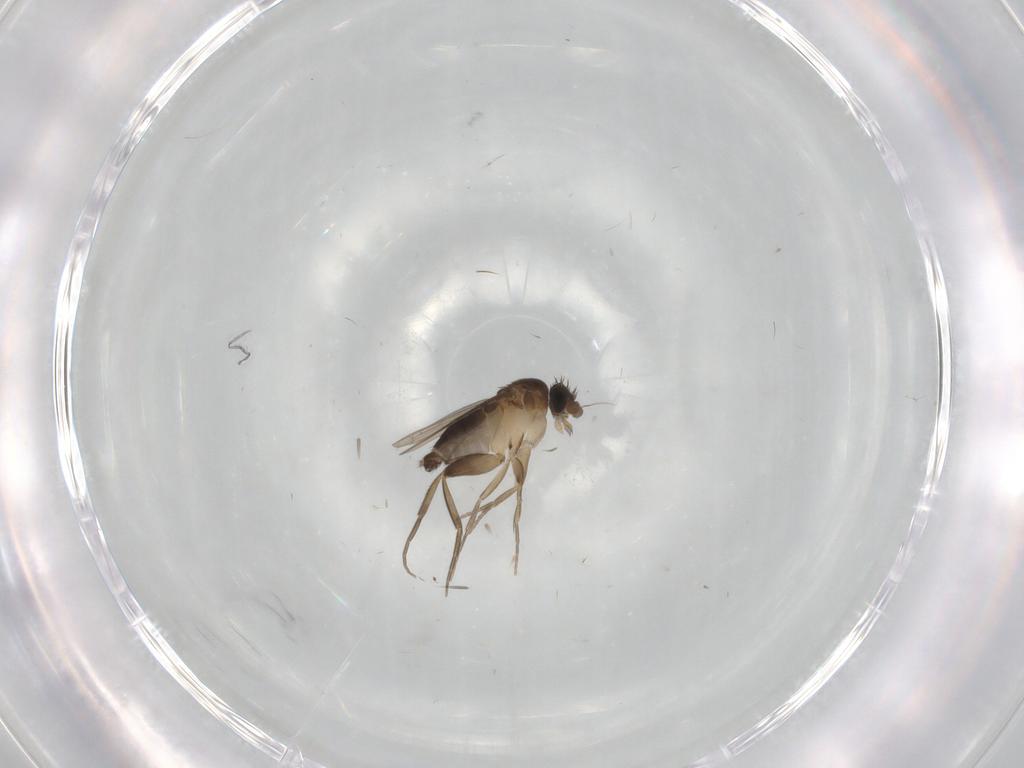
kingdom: Animalia
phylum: Arthropoda
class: Insecta
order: Diptera
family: Phoridae
